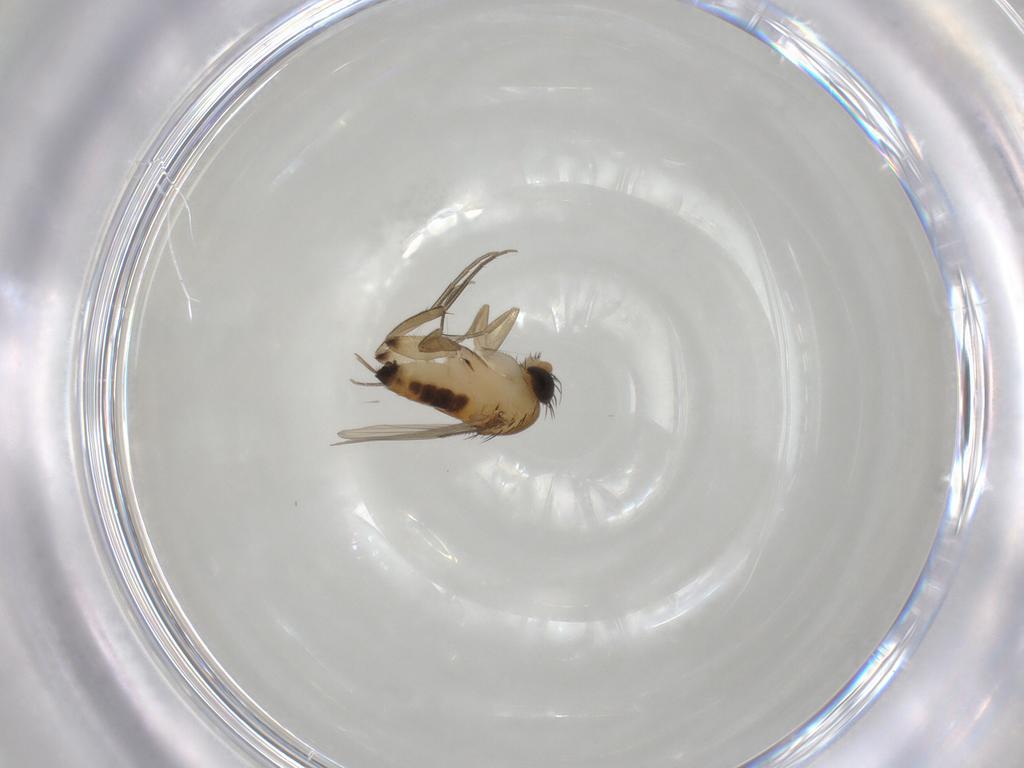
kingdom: Animalia
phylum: Arthropoda
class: Insecta
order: Diptera
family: Phoridae
